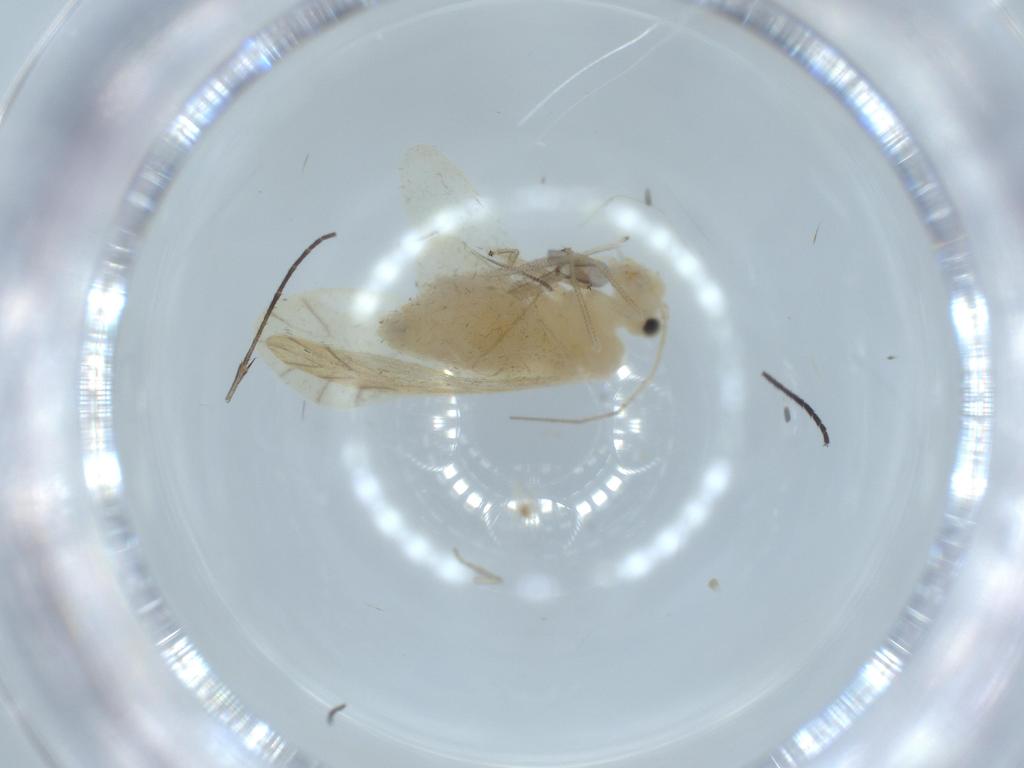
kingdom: Animalia
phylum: Arthropoda
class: Insecta
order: Psocodea
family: Caeciliusidae
